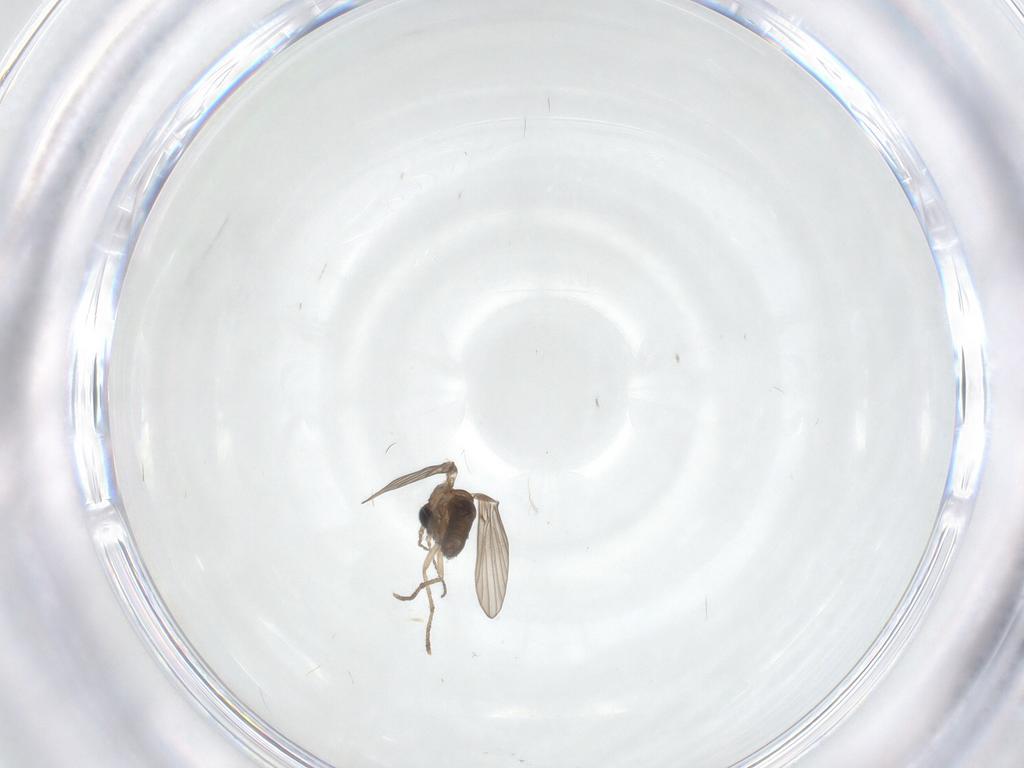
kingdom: Animalia
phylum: Arthropoda
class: Insecta
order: Diptera
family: Psychodidae
